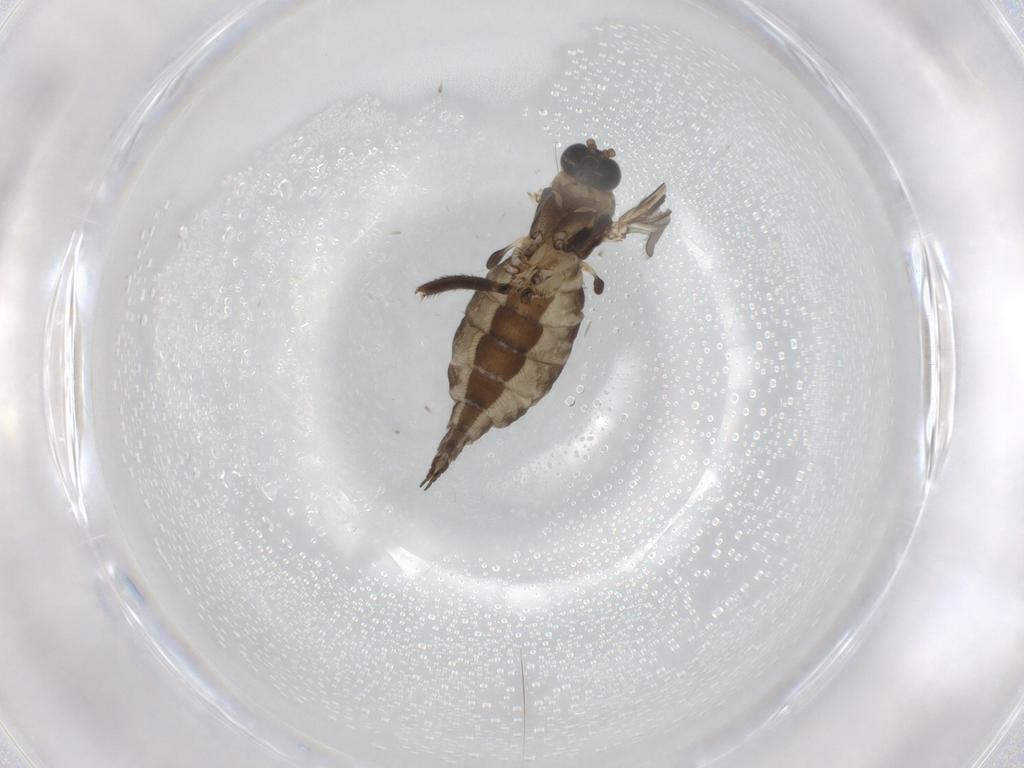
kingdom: Animalia
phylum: Arthropoda
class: Insecta
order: Diptera
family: Sciaridae
